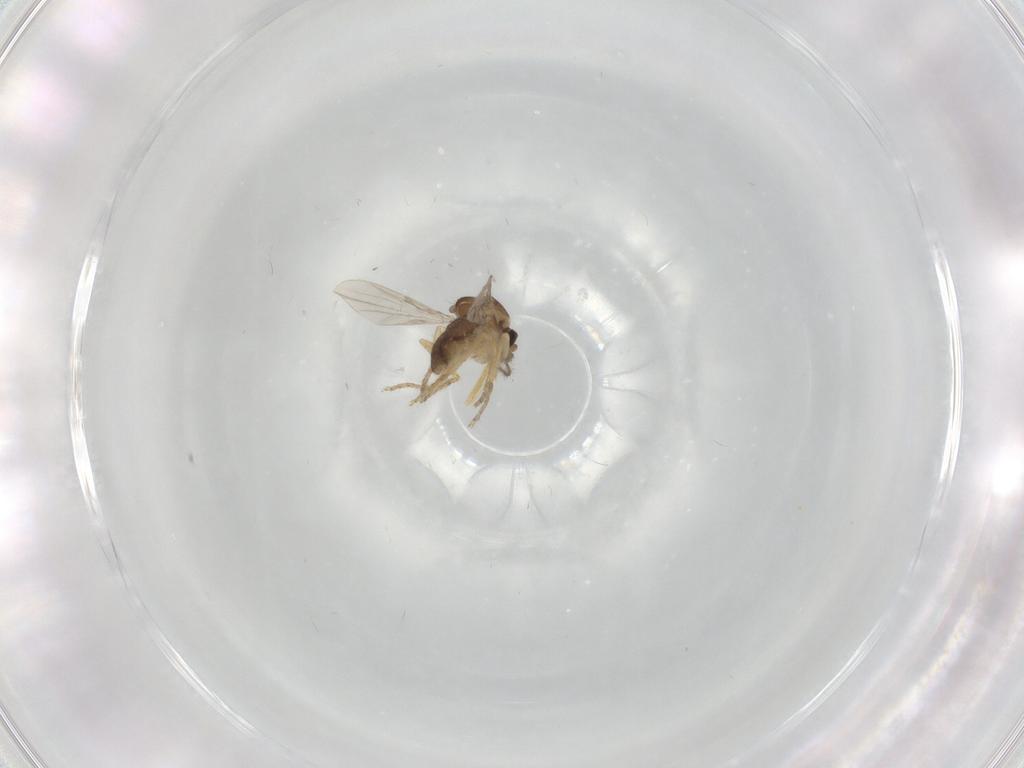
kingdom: Animalia
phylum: Arthropoda
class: Insecta
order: Diptera
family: Ceratopogonidae
